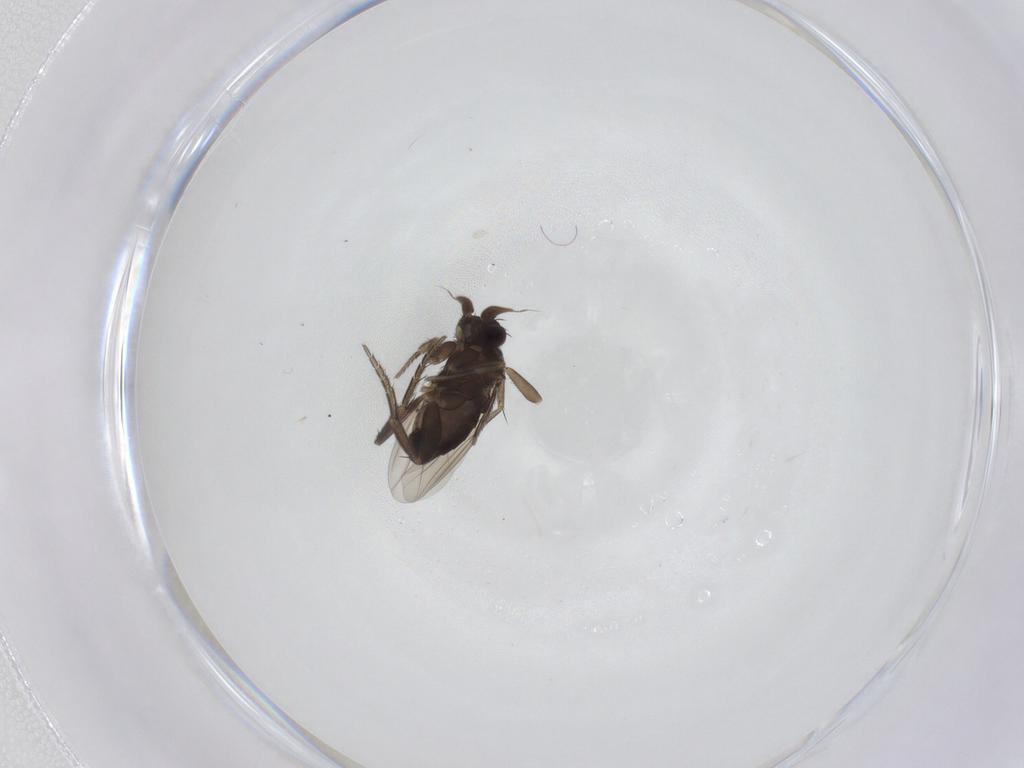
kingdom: Animalia
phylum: Arthropoda
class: Insecta
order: Diptera
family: Phoridae
